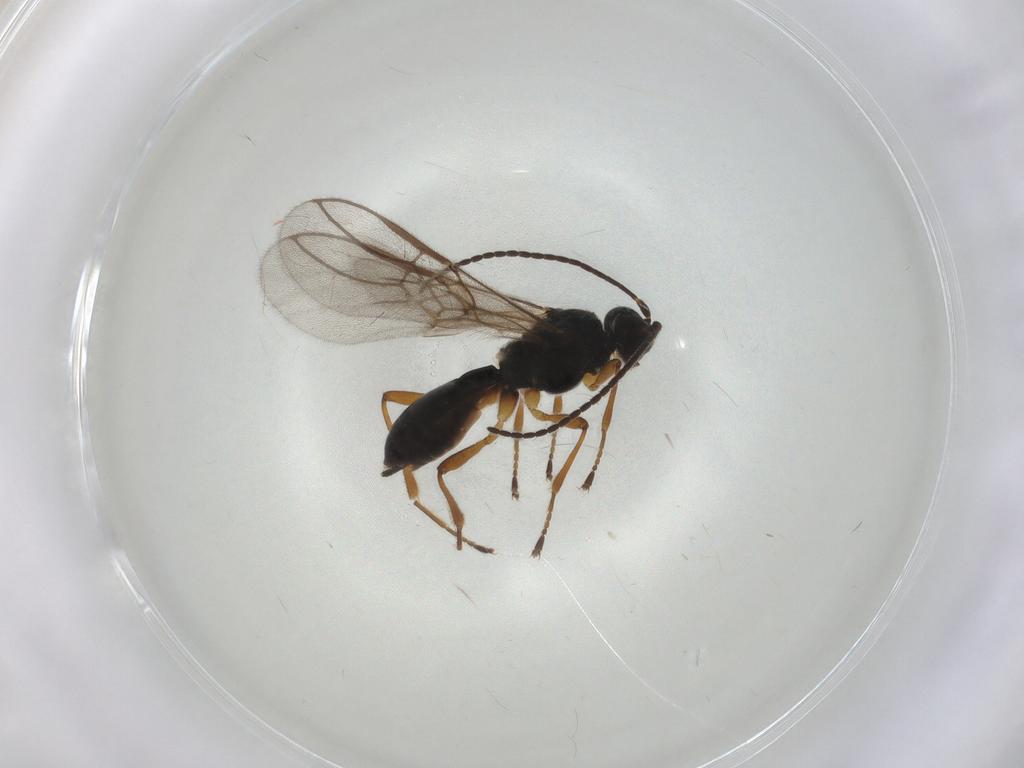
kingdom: Animalia
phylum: Arthropoda
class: Insecta
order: Hymenoptera
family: Braconidae
